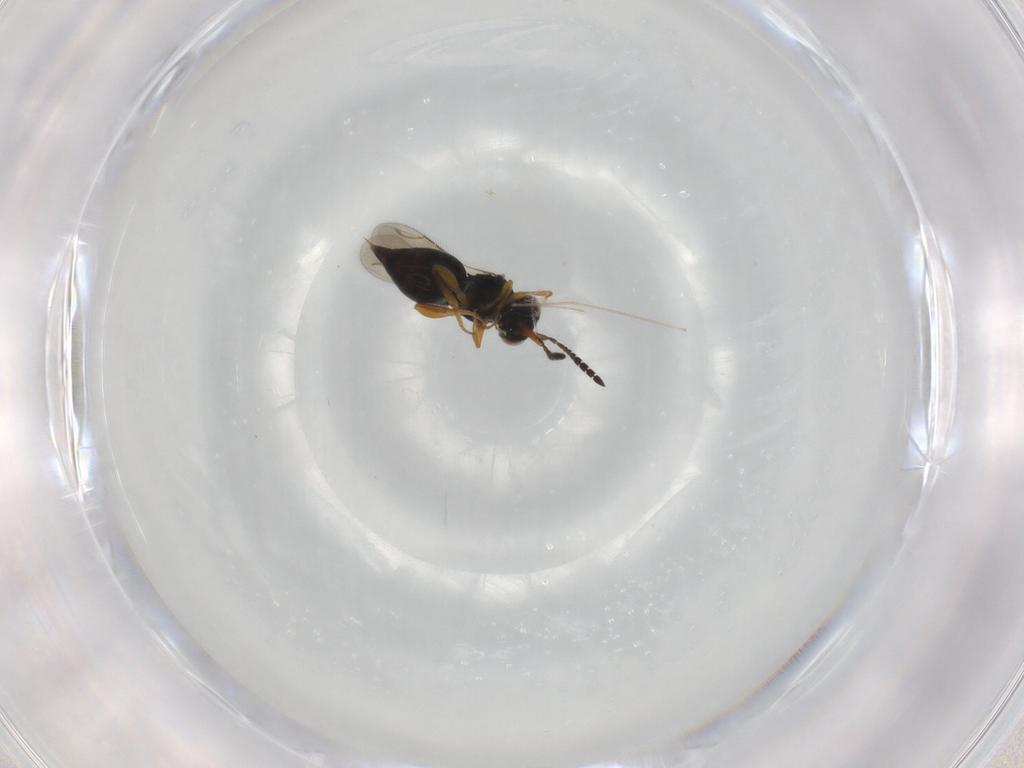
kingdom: Animalia
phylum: Arthropoda
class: Insecta
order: Hymenoptera
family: Ceraphronidae
